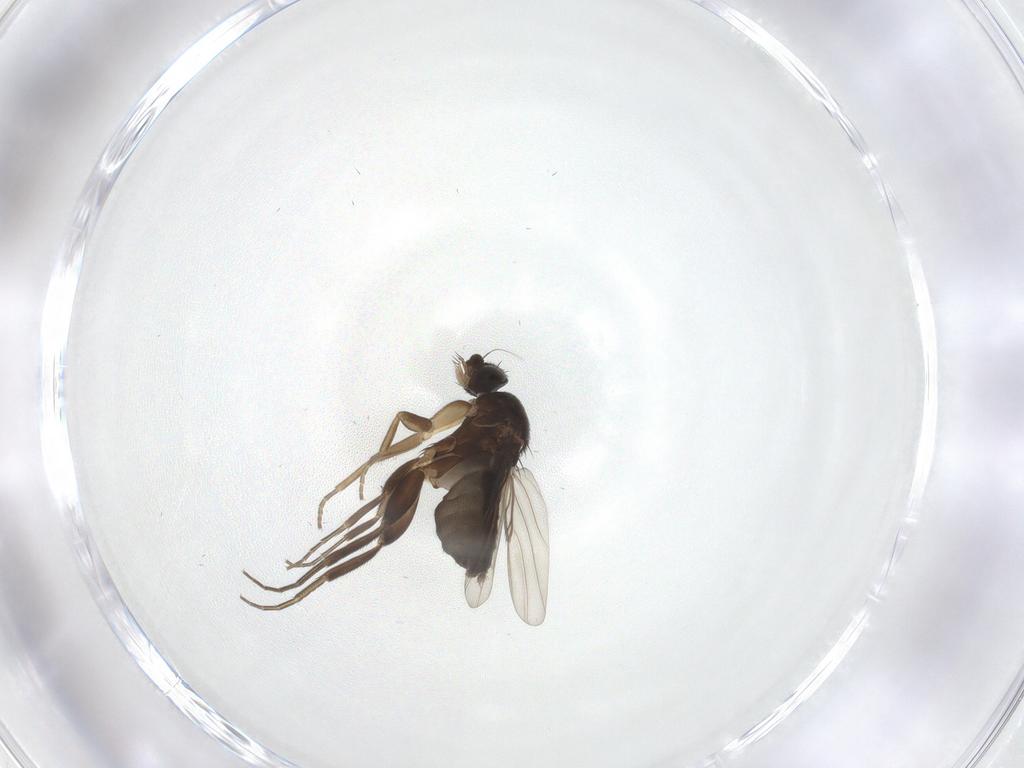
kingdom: Animalia
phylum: Arthropoda
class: Insecta
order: Diptera
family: Phoridae
